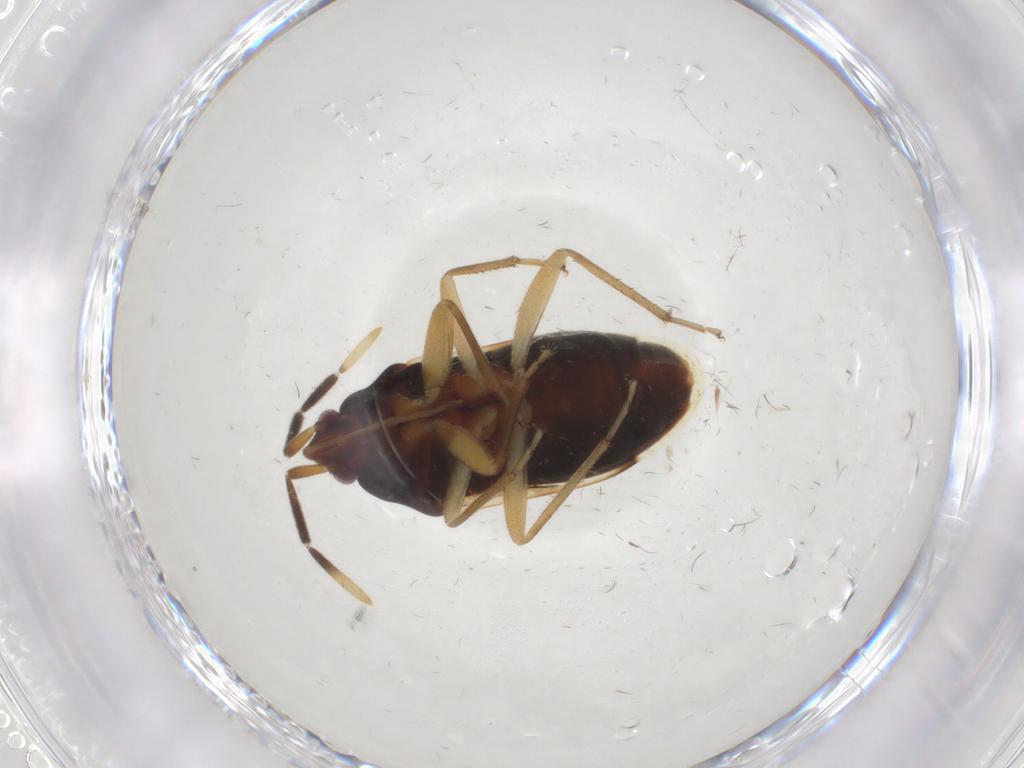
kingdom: Animalia
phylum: Arthropoda
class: Insecta
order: Hemiptera
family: Rhyparochromidae
